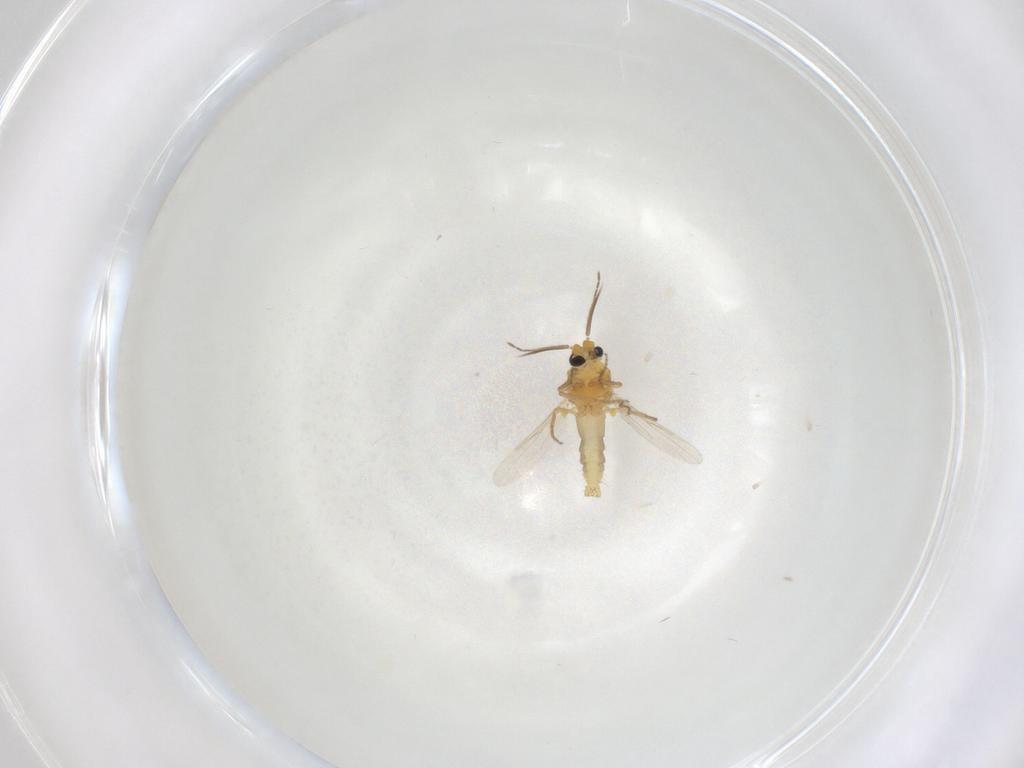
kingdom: Animalia
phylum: Arthropoda
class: Insecta
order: Diptera
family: Ceratopogonidae
